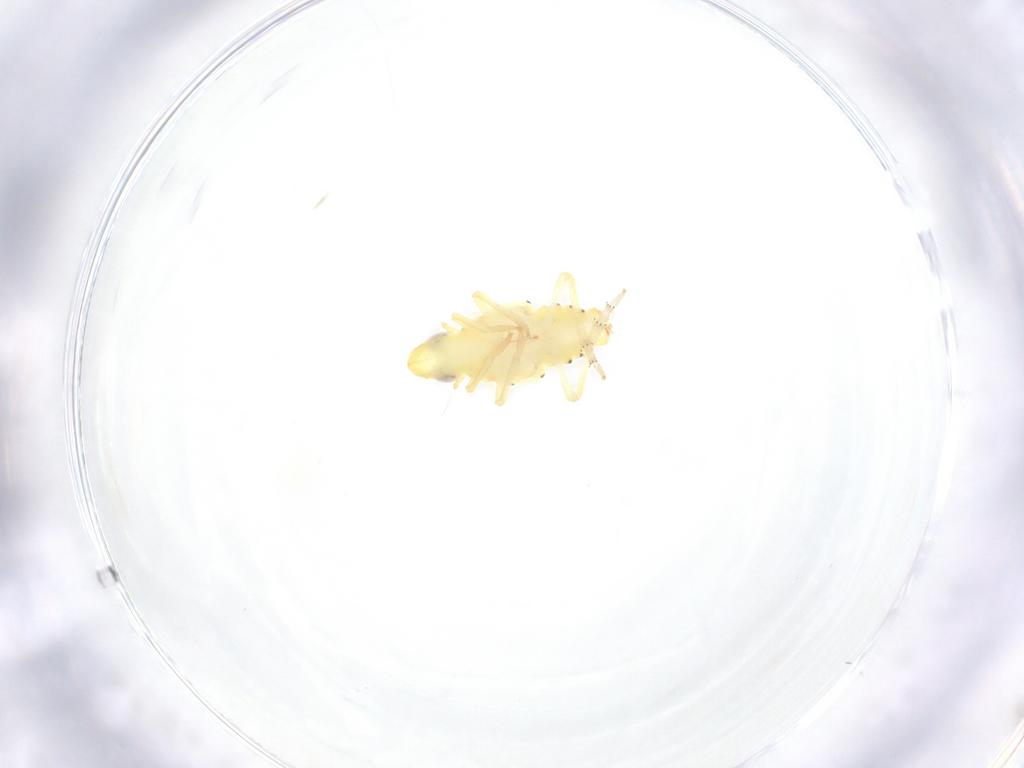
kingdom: Animalia
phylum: Arthropoda
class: Insecta
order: Hemiptera
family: Tropiduchidae
